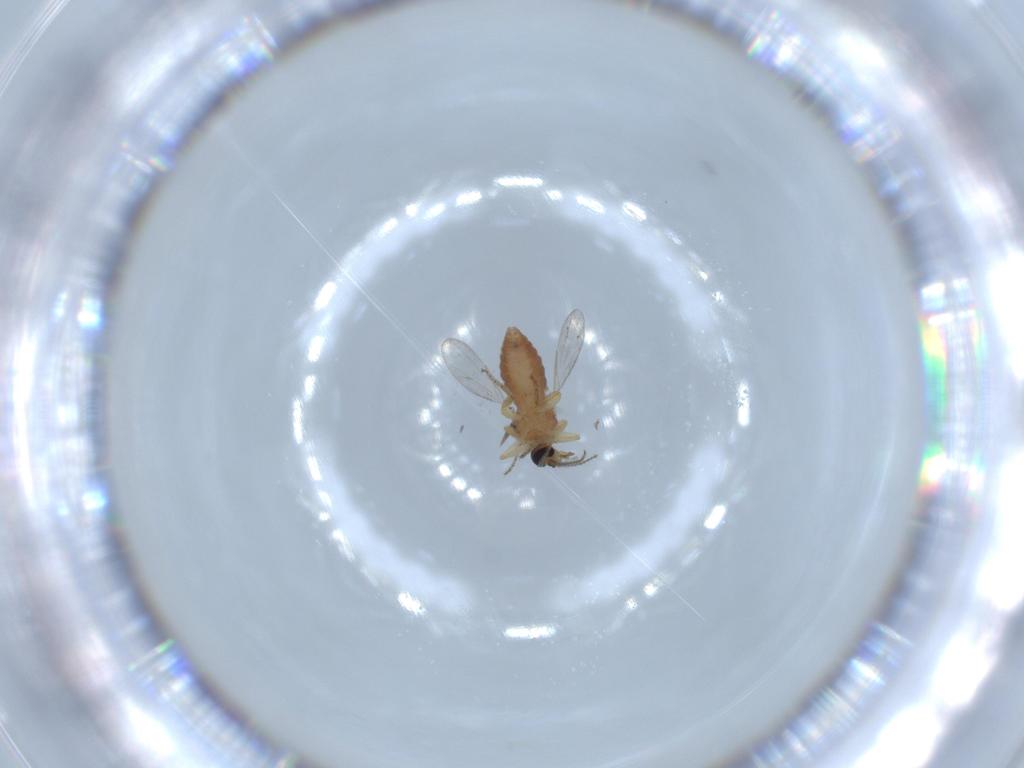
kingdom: Animalia
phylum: Arthropoda
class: Insecta
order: Diptera
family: Ceratopogonidae
